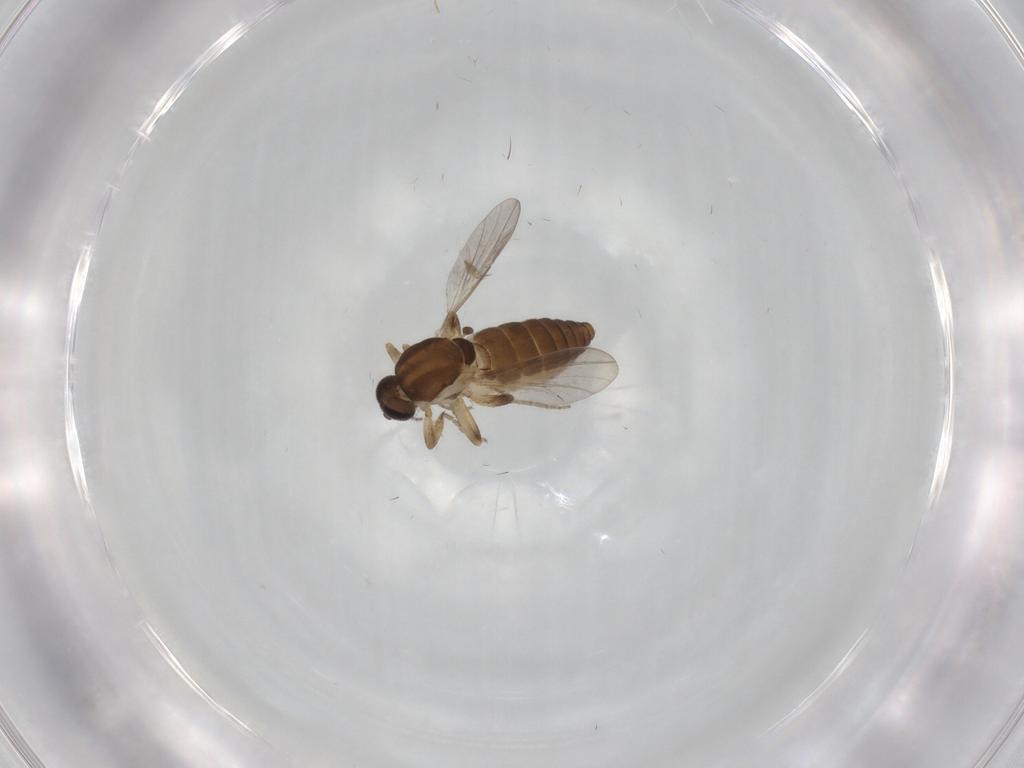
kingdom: Animalia
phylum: Arthropoda
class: Insecta
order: Diptera
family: Ceratopogonidae
